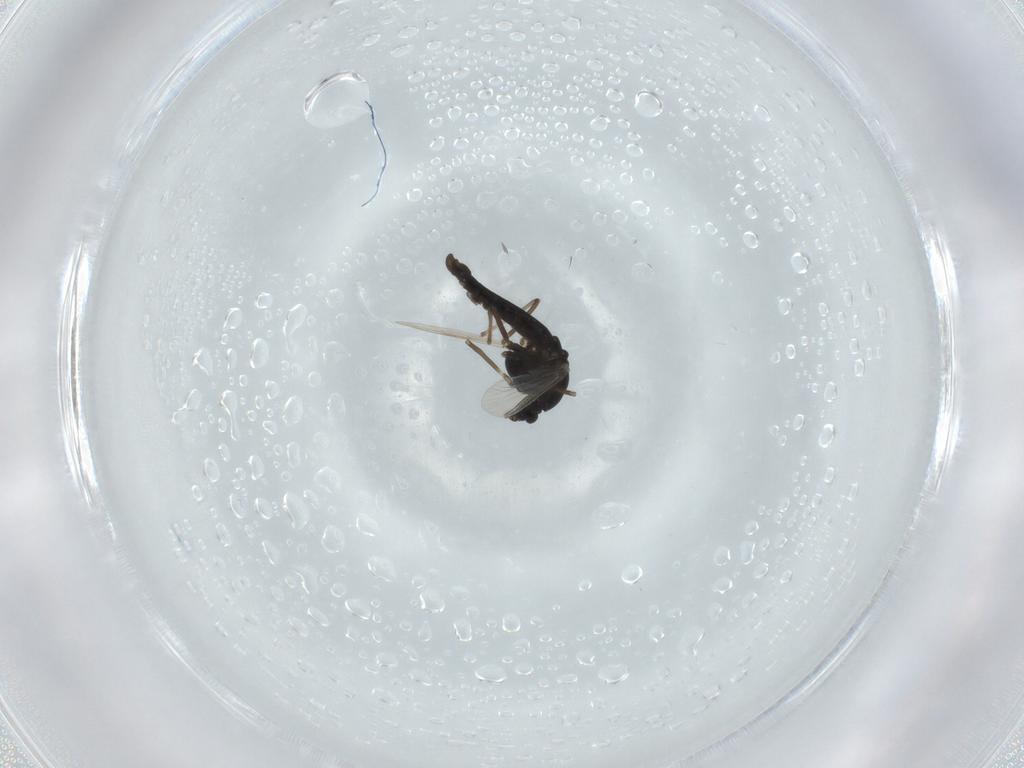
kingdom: Animalia
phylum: Arthropoda
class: Insecta
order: Diptera
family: Chironomidae
